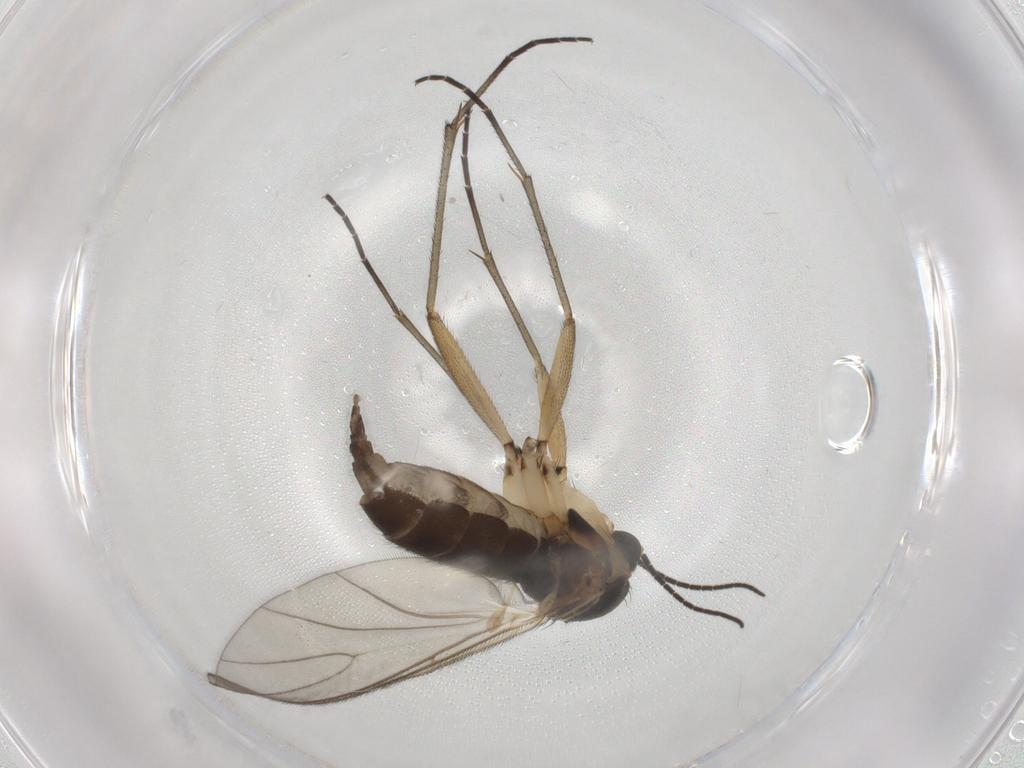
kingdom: Animalia
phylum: Arthropoda
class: Insecta
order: Diptera
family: Sciaridae
